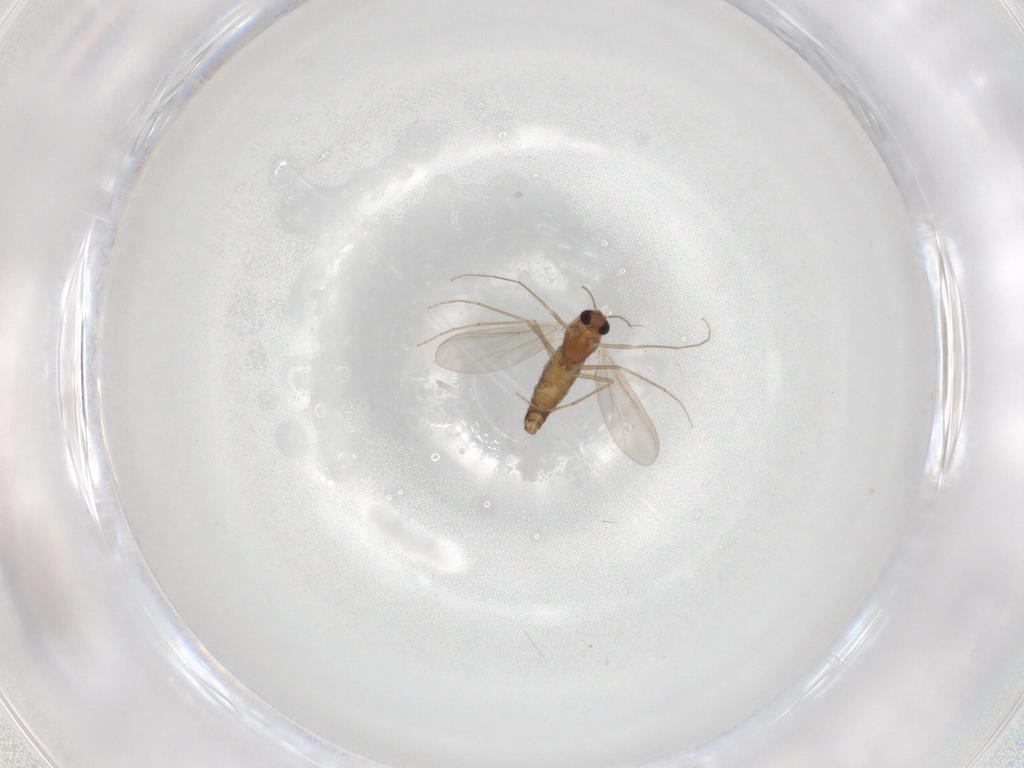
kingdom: Animalia
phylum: Arthropoda
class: Insecta
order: Diptera
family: Chironomidae
